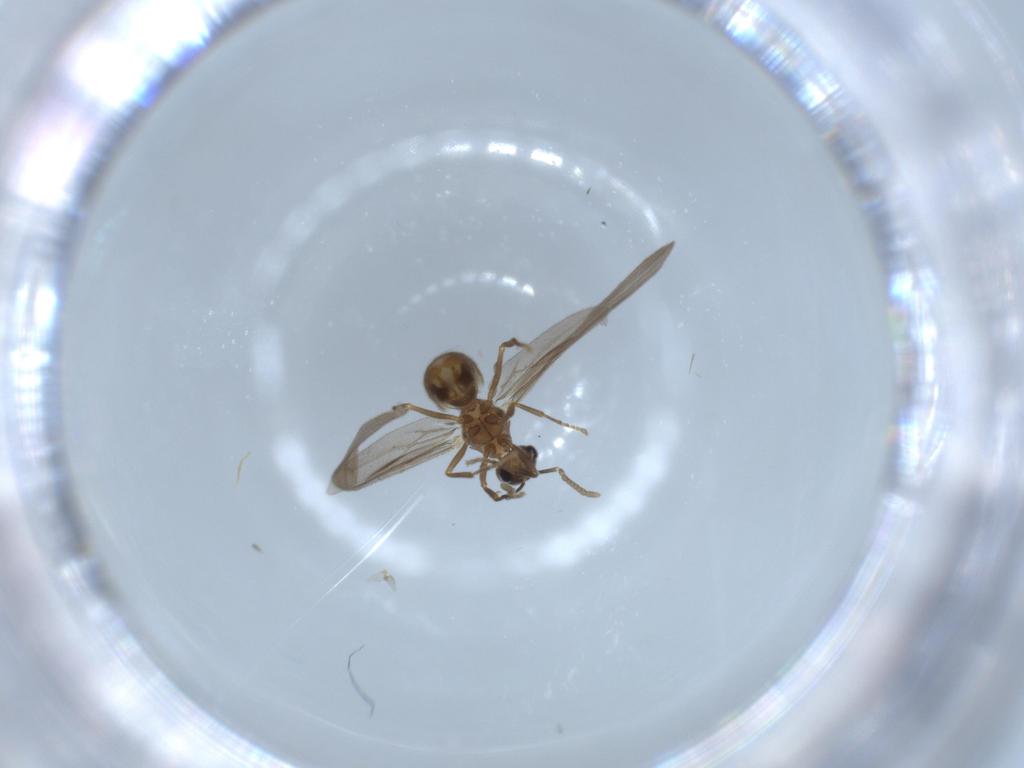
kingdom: Animalia
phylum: Arthropoda
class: Insecta
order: Hymenoptera
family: Formicidae
